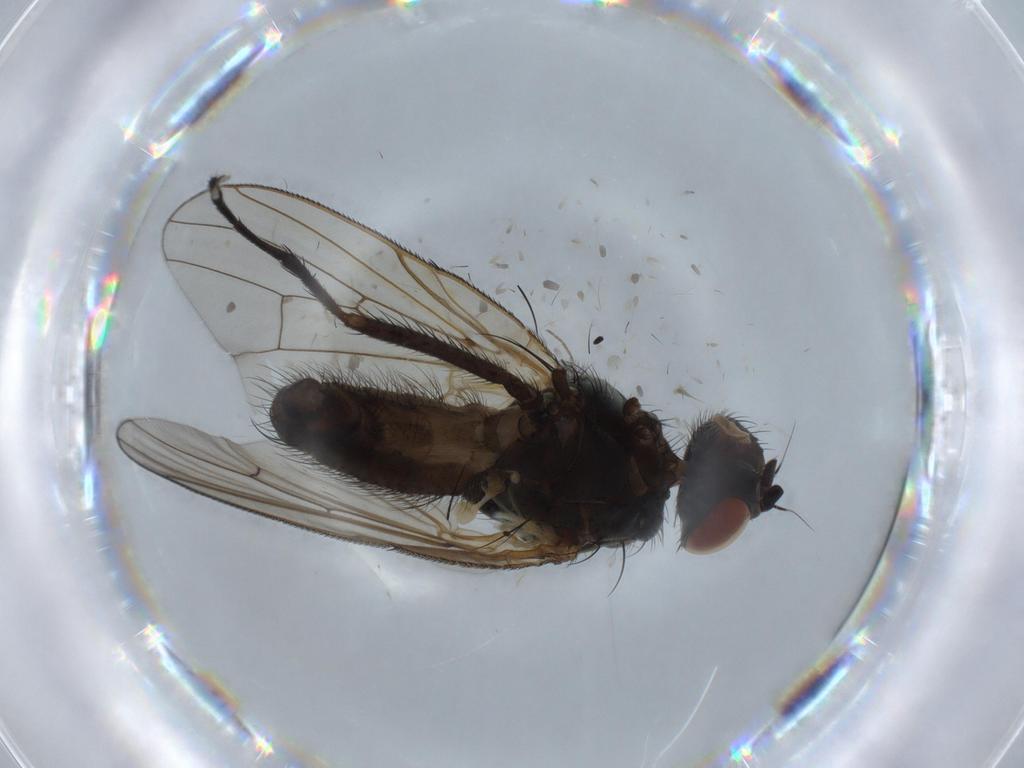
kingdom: Animalia
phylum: Arthropoda
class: Insecta
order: Diptera
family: Anthomyiidae
